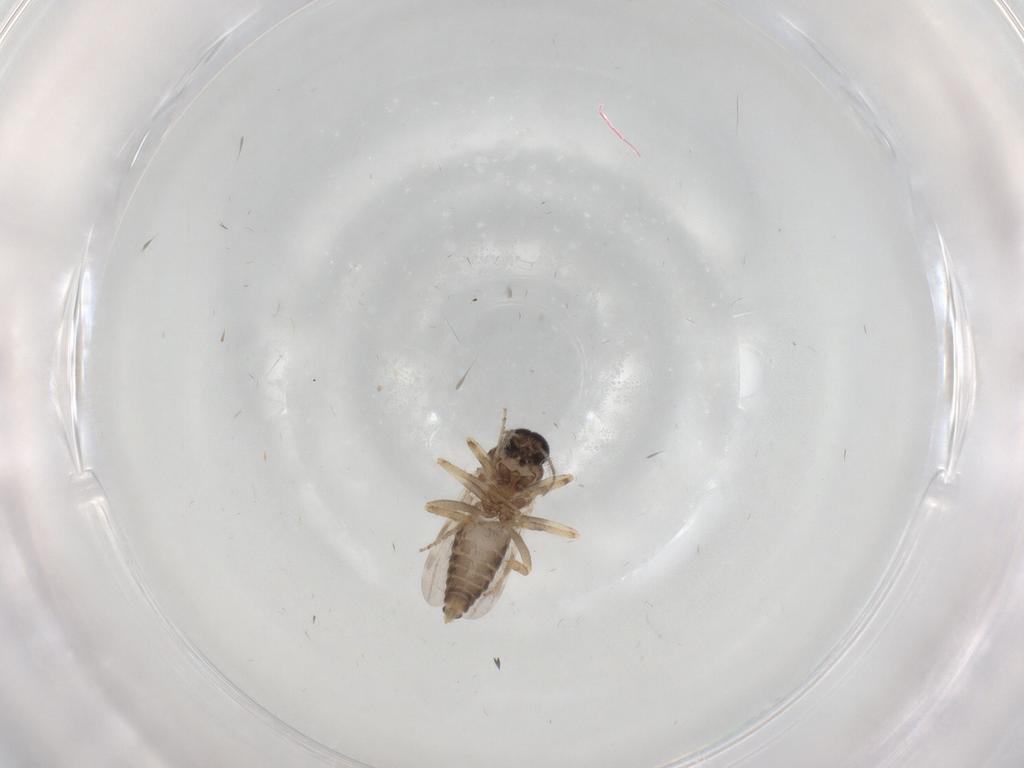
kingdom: Animalia
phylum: Arthropoda
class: Insecta
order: Diptera
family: Ceratopogonidae
